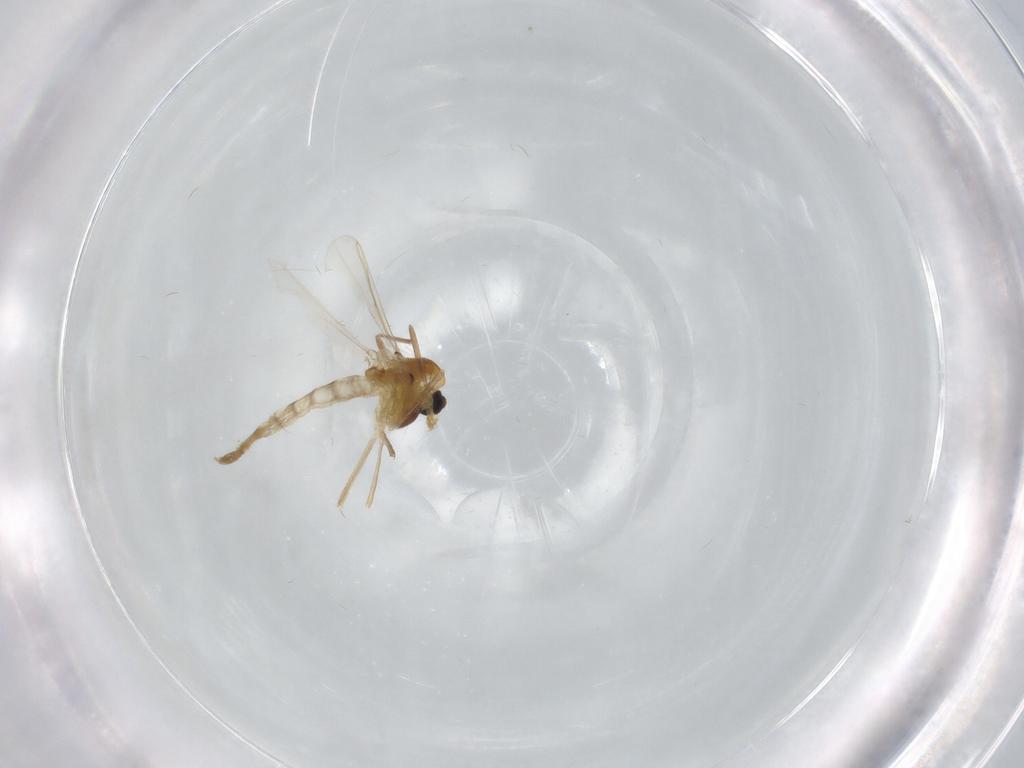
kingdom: Animalia
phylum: Arthropoda
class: Insecta
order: Diptera
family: Chironomidae
